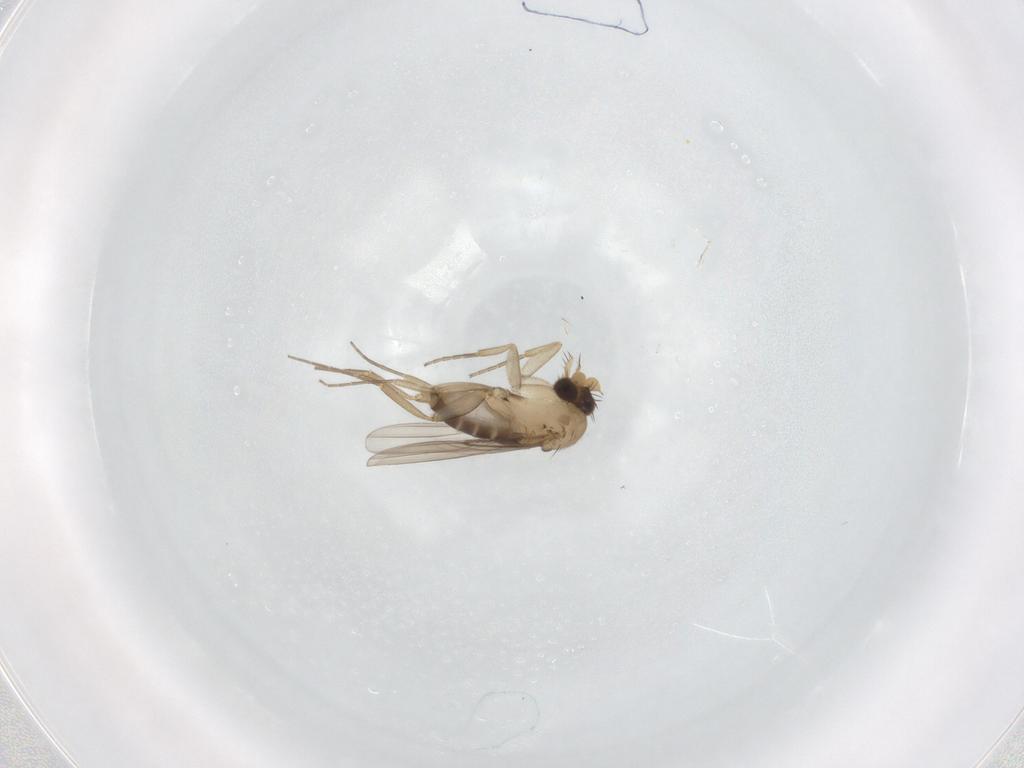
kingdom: Animalia
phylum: Arthropoda
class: Insecta
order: Diptera
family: Phoridae
